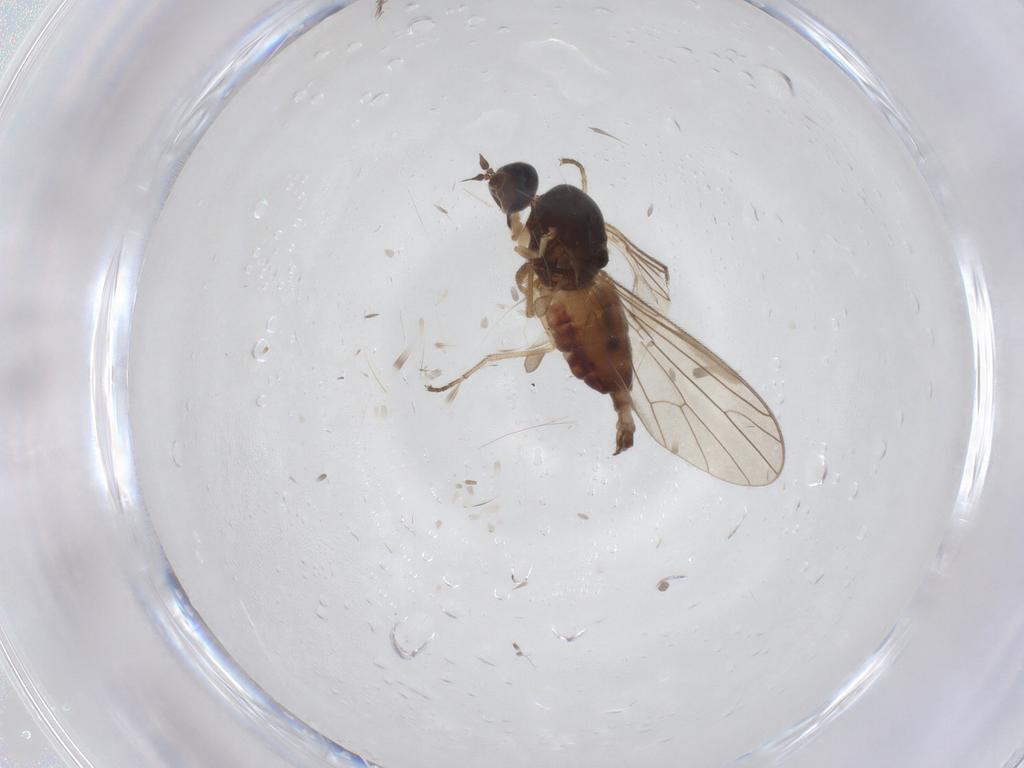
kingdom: Animalia
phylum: Arthropoda
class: Insecta
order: Diptera
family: Empididae
